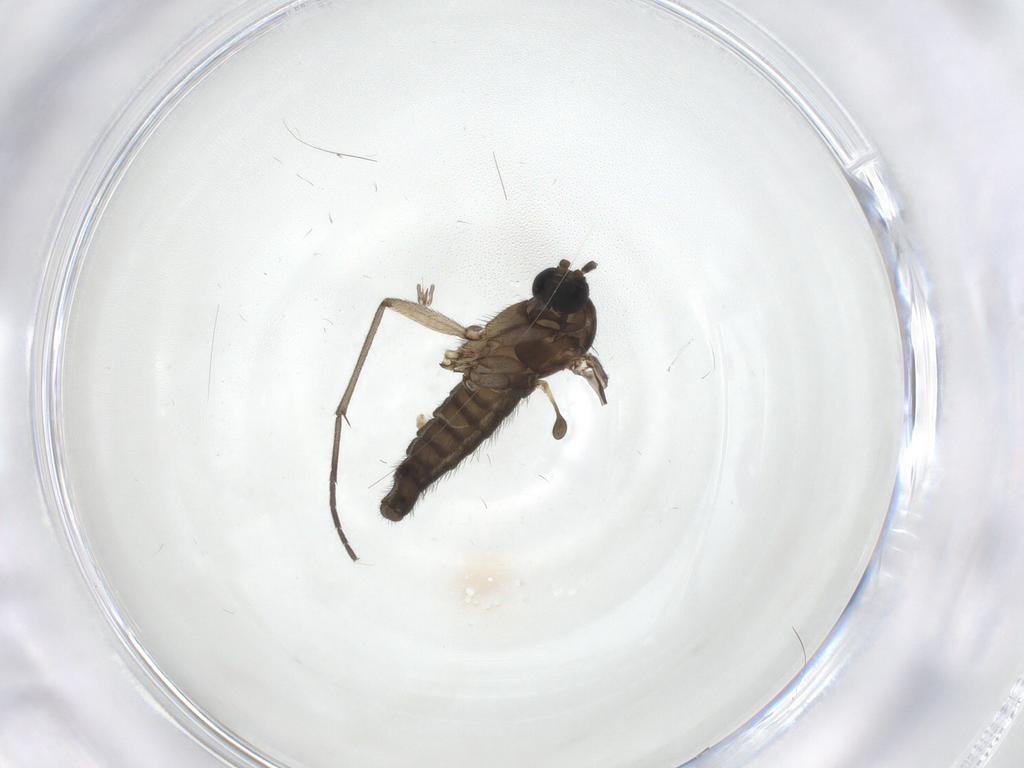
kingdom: Animalia
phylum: Arthropoda
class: Insecta
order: Diptera
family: Sciaridae
